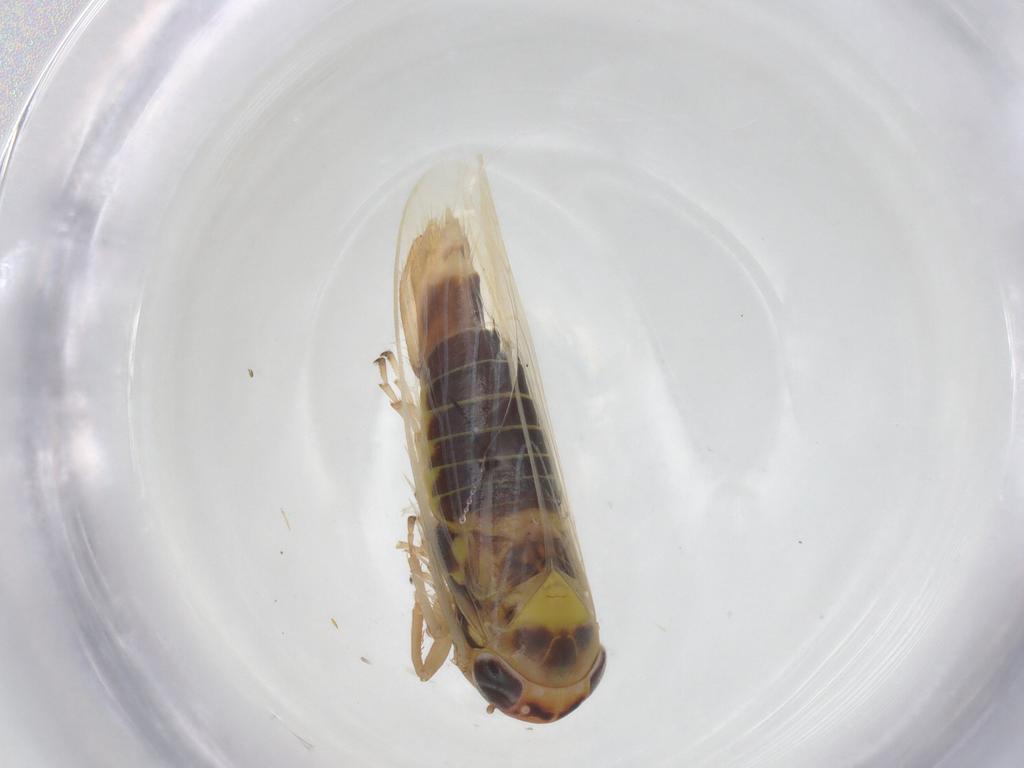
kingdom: Animalia
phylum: Arthropoda
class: Insecta
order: Hemiptera
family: Cicadellidae
